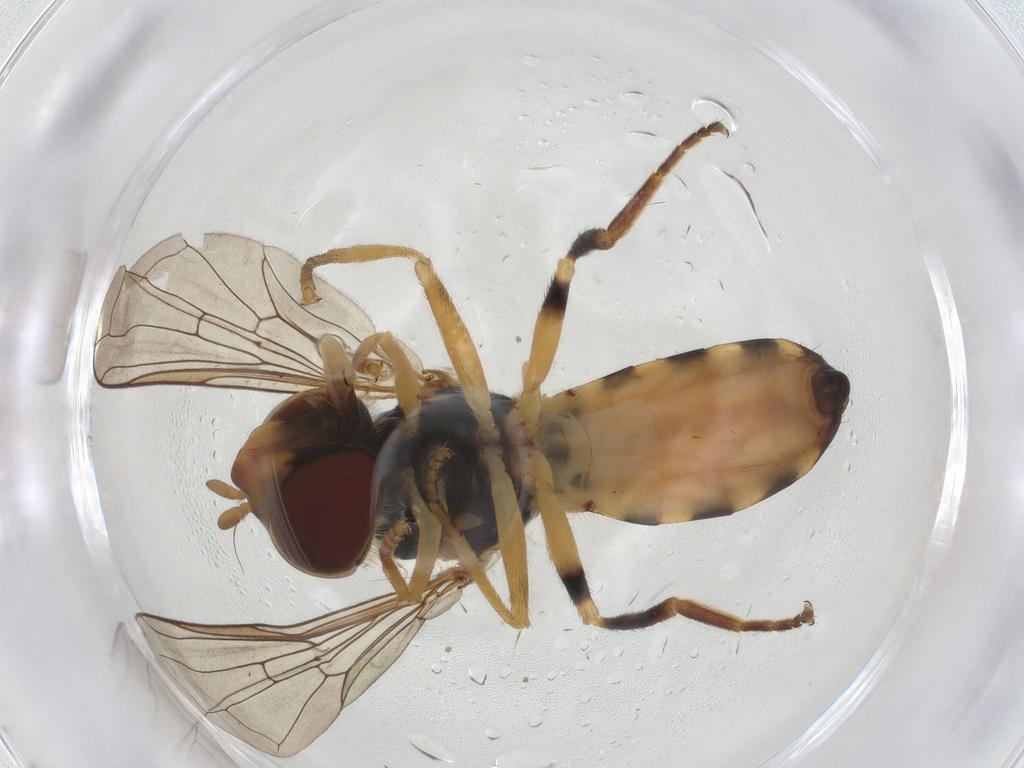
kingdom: Animalia
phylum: Arthropoda
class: Insecta
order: Diptera
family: Syrphidae
